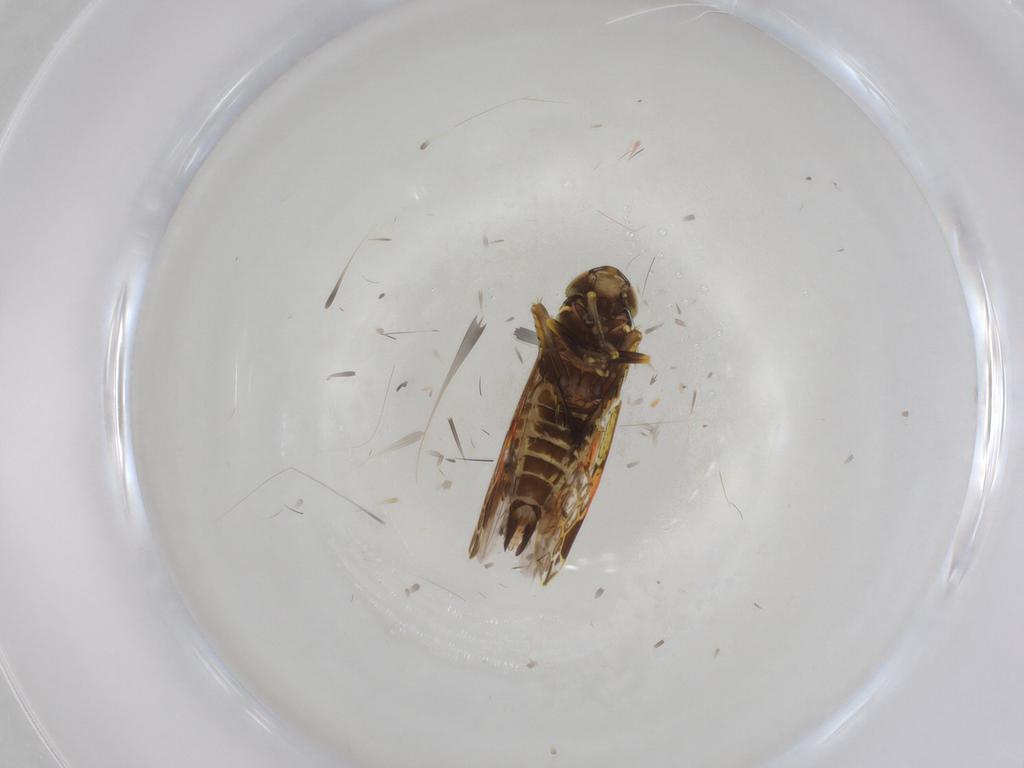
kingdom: Animalia
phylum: Arthropoda
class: Insecta
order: Hemiptera
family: Cicadellidae
